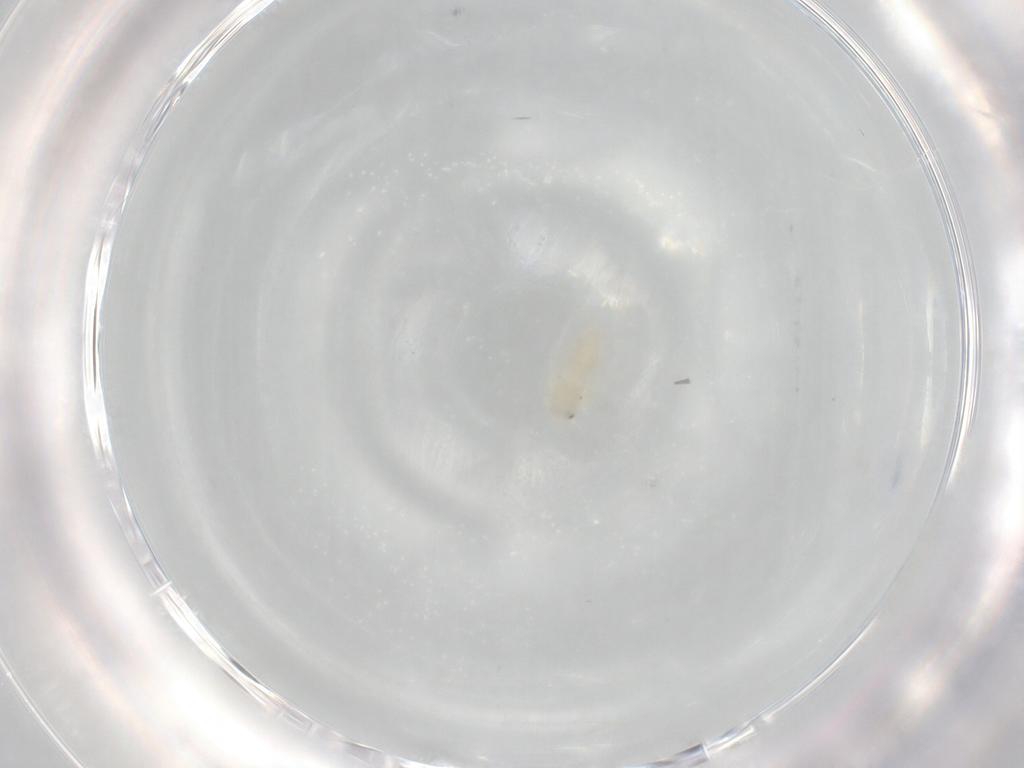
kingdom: Animalia
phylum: Arthropoda
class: Insecta
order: Hemiptera
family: Aleyrodidae
